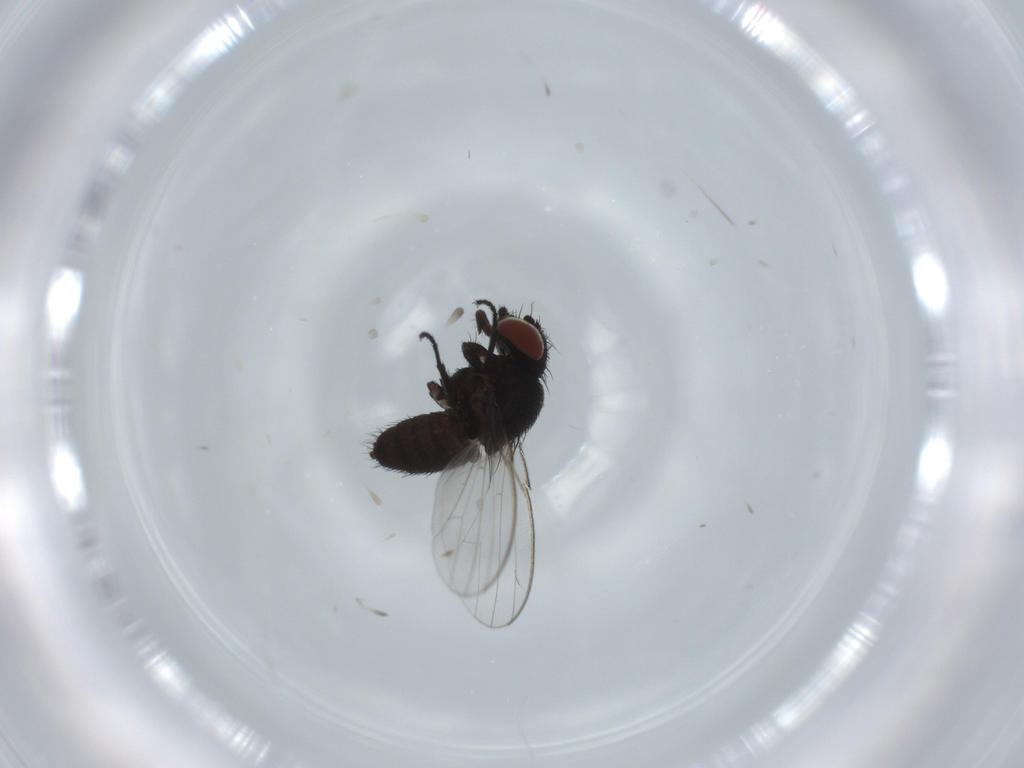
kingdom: Animalia
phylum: Arthropoda
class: Insecta
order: Diptera
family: Milichiidae
